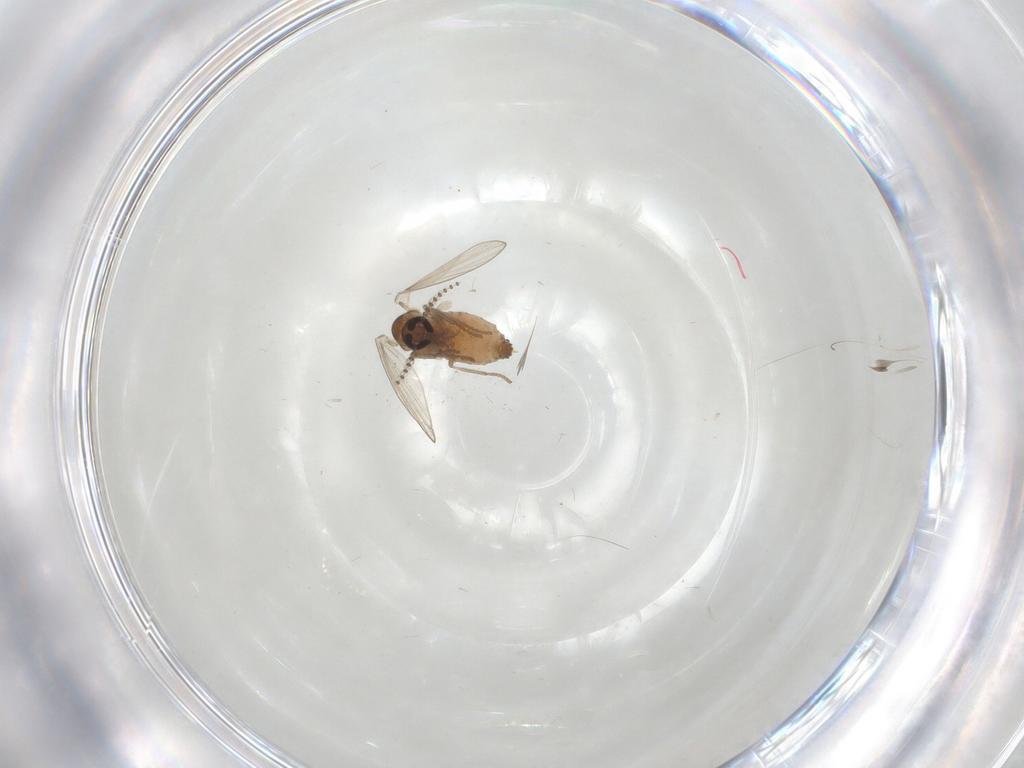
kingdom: Animalia
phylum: Arthropoda
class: Insecta
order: Diptera
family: Psychodidae
